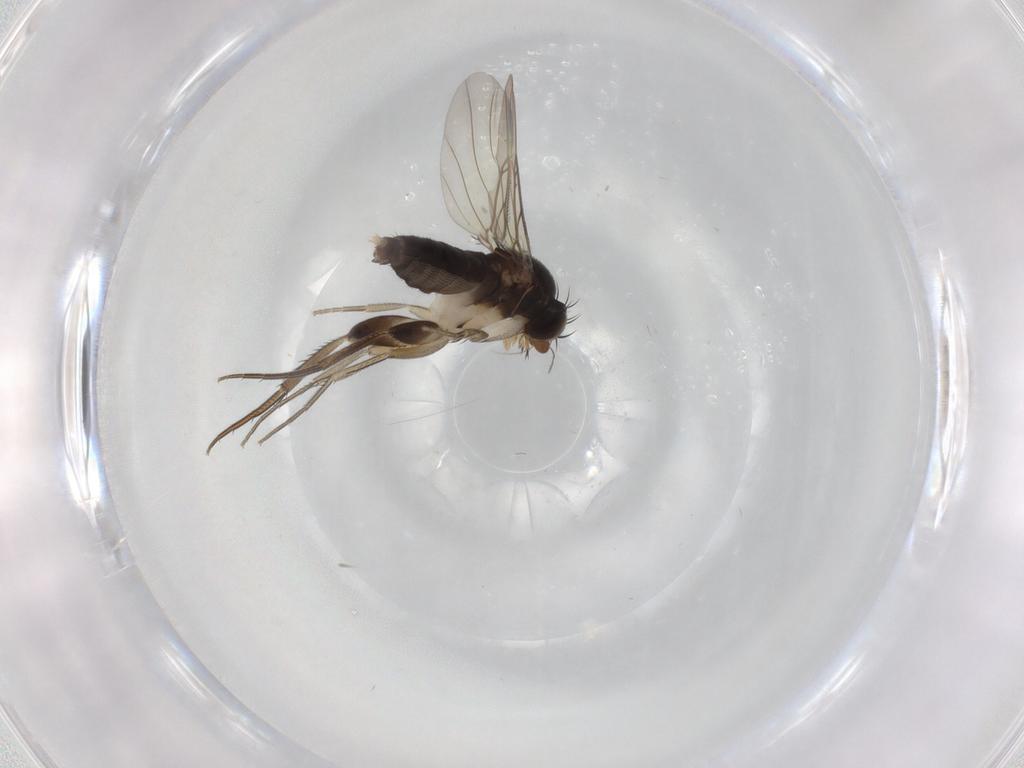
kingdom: Animalia
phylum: Arthropoda
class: Insecta
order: Diptera
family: Phoridae
